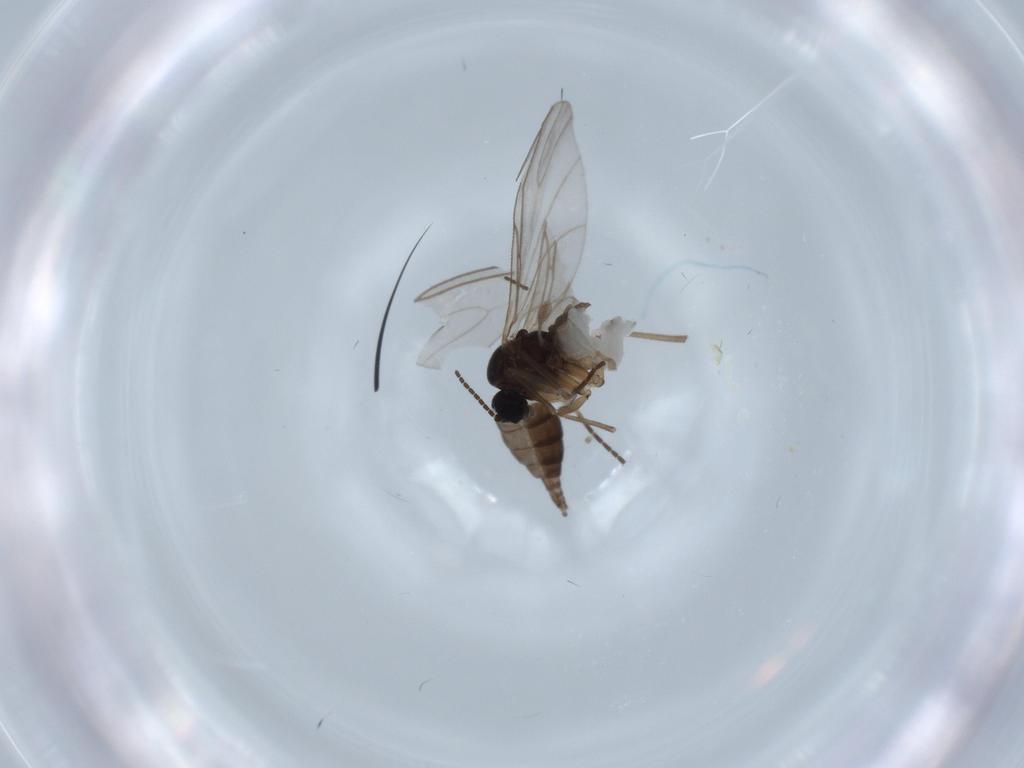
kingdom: Animalia
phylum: Arthropoda
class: Insecta
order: Diptera
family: Sciaridae
